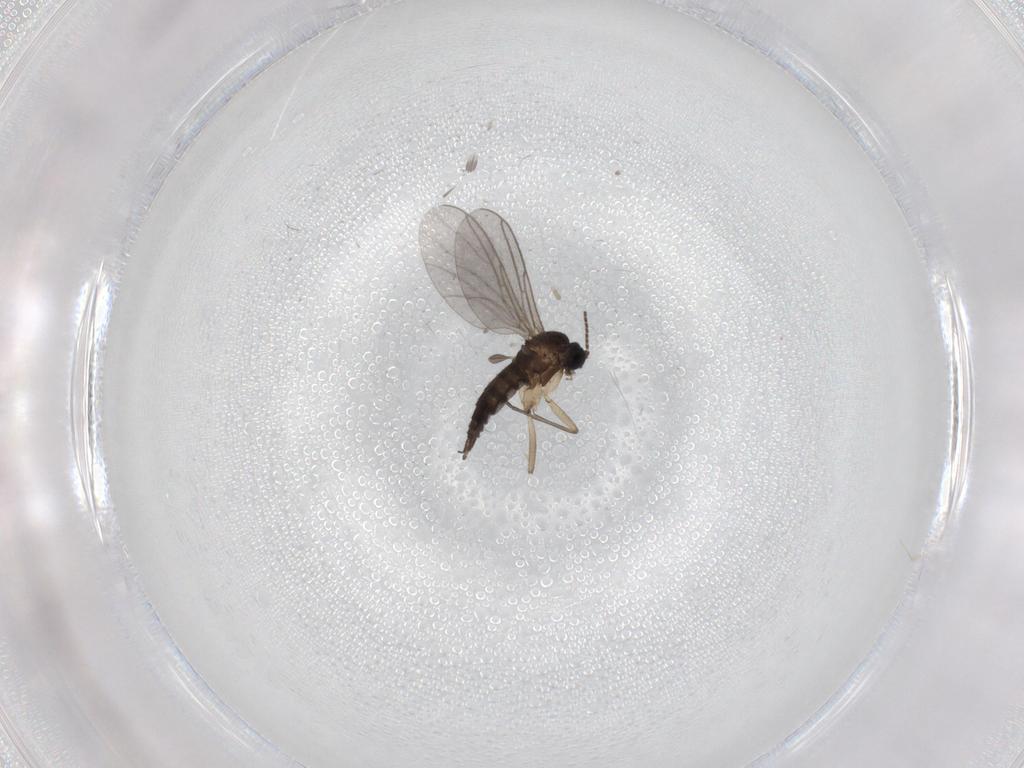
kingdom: Animalia
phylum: Arthropoda
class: Insecta
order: Diptera
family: Sciaridae
